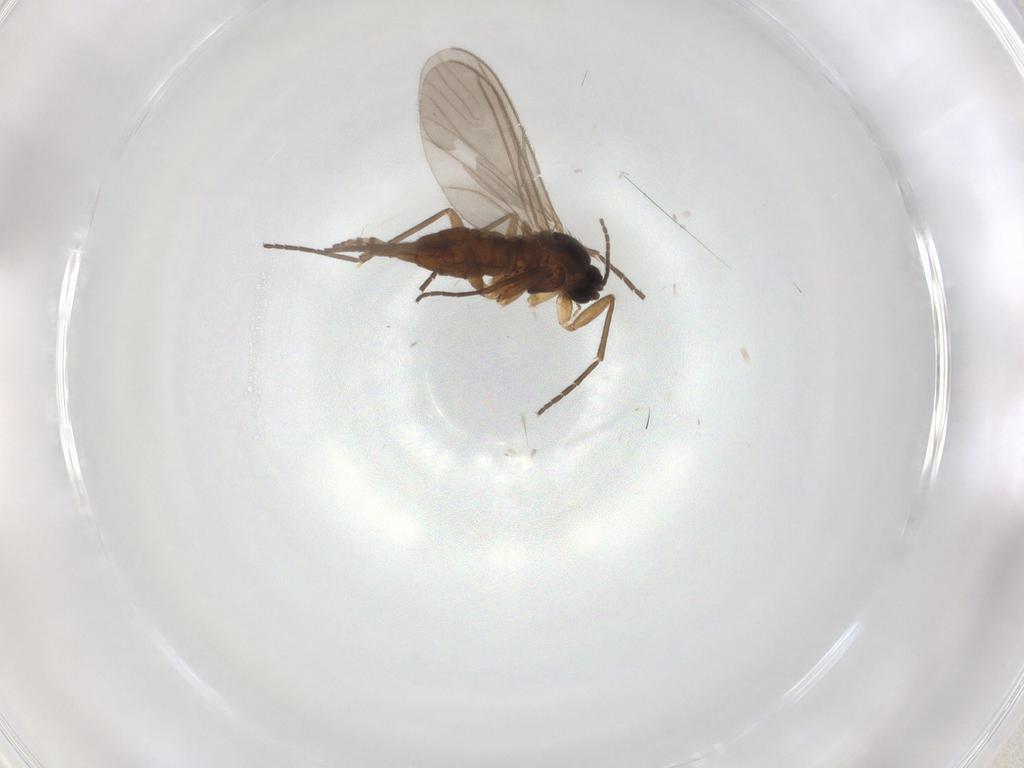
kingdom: Animalia
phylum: Arthropoda
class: Insecta
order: Diptera
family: Sciaridae
